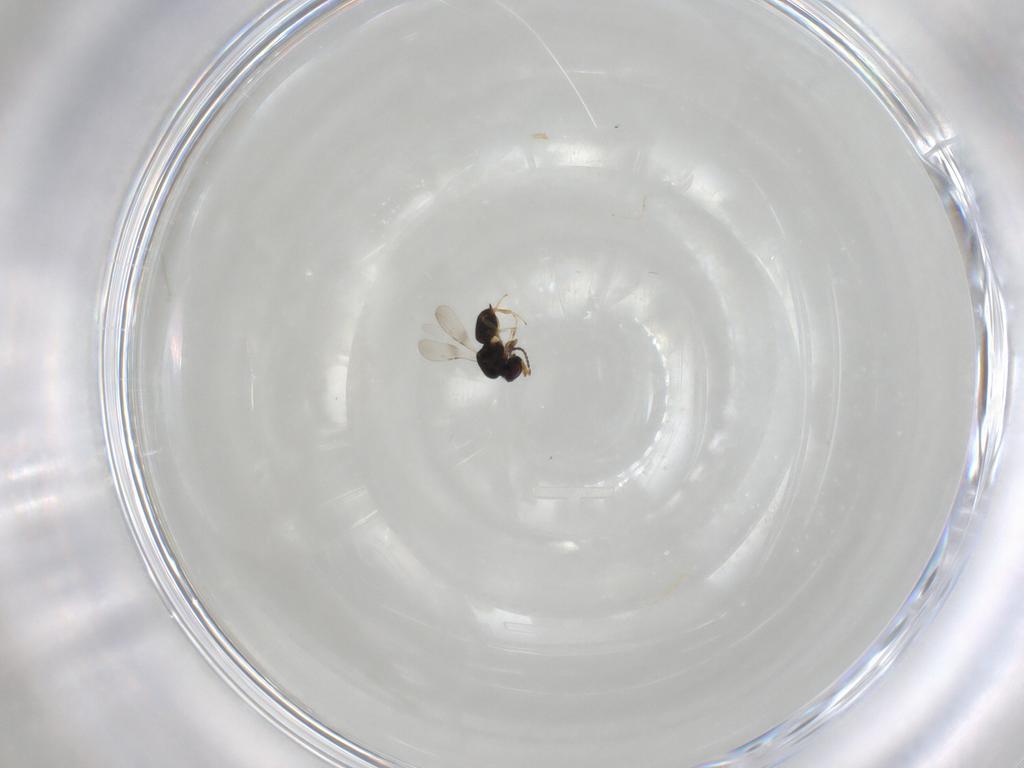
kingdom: Animalia
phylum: Arthropoda
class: Insecta
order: Hymenoptera
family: Eulophidae
